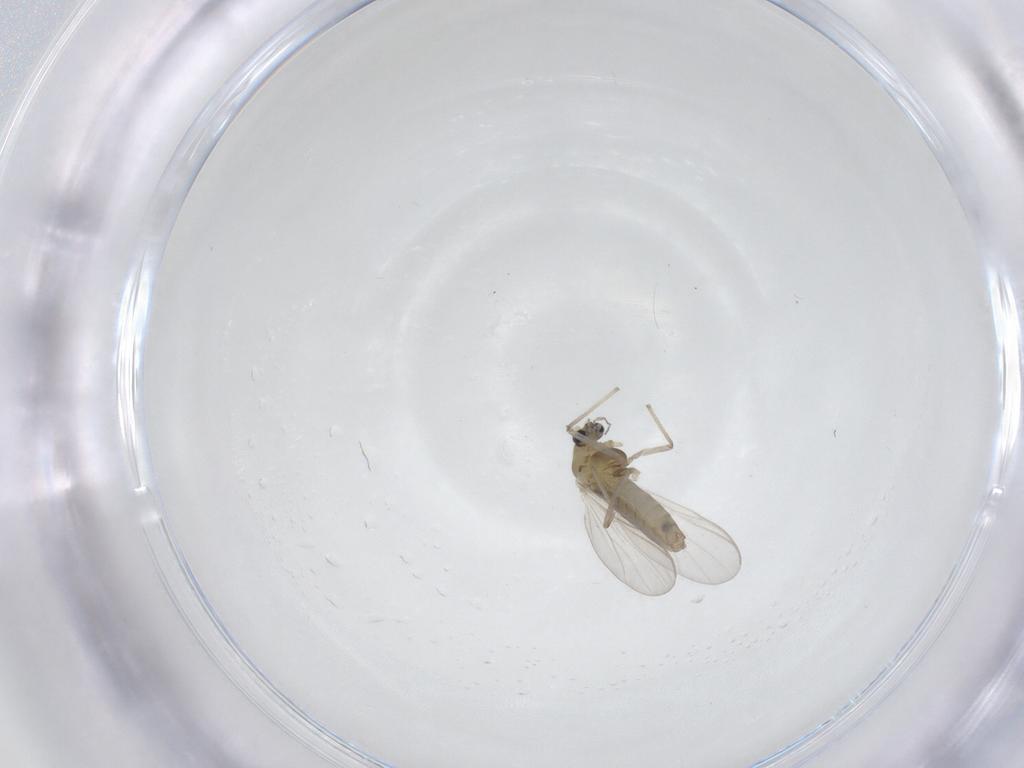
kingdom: Animalia
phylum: Arthropoda
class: Insecta
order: Diptera
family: Chironomidae
